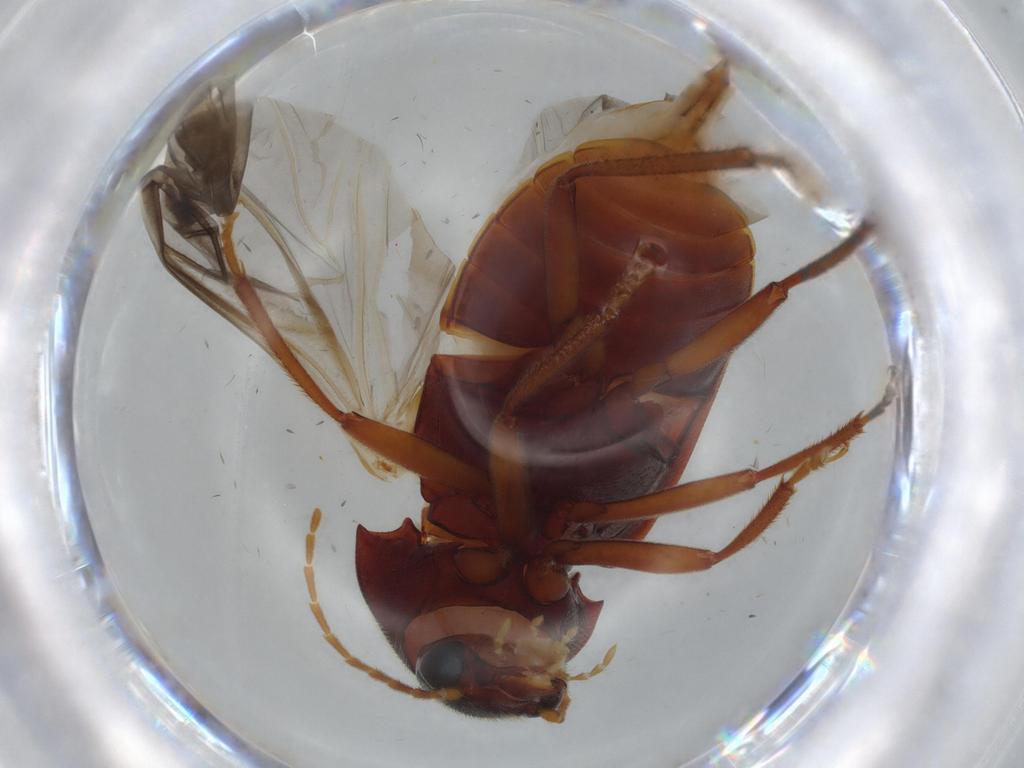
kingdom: Animalia
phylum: Arthropoda
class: Insecta
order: Coleoptera
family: Ptilodactylidae
